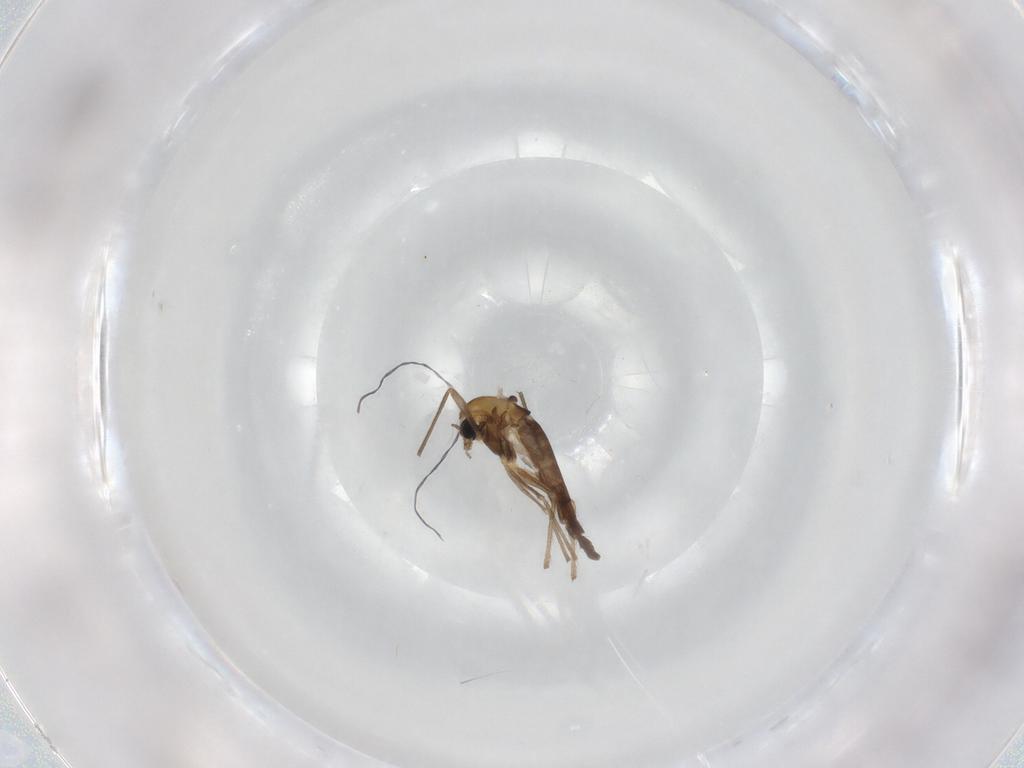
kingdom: Animalia
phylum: Arthropoda
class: Insecta
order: Diptera
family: Chironomidae
